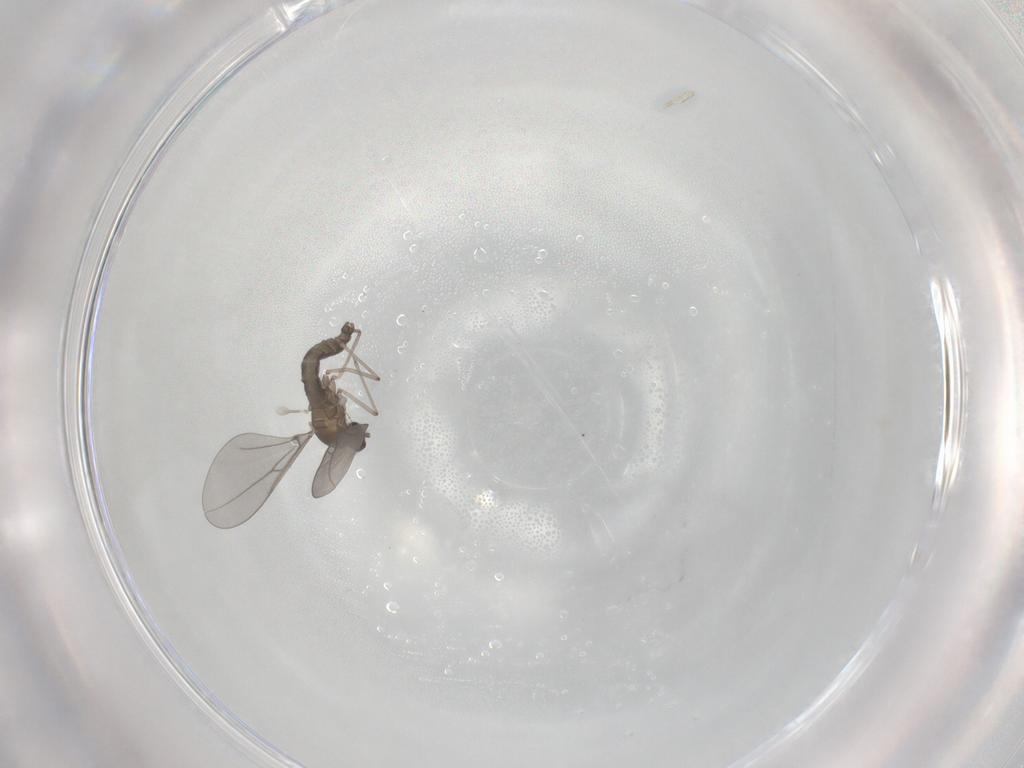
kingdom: Animalia
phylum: Arthropoda
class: Insecta
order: Diptera
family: Cecidomyiidae
